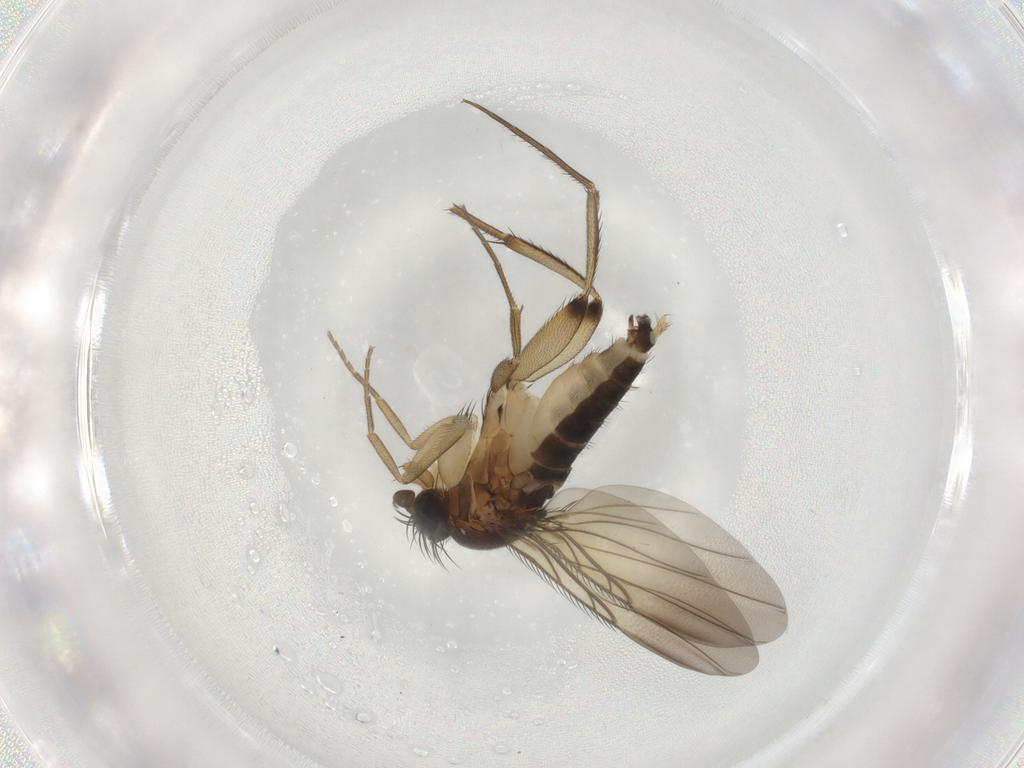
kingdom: Animalia
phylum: Arthropoda
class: Insecta
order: Diptera
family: Phoridae
